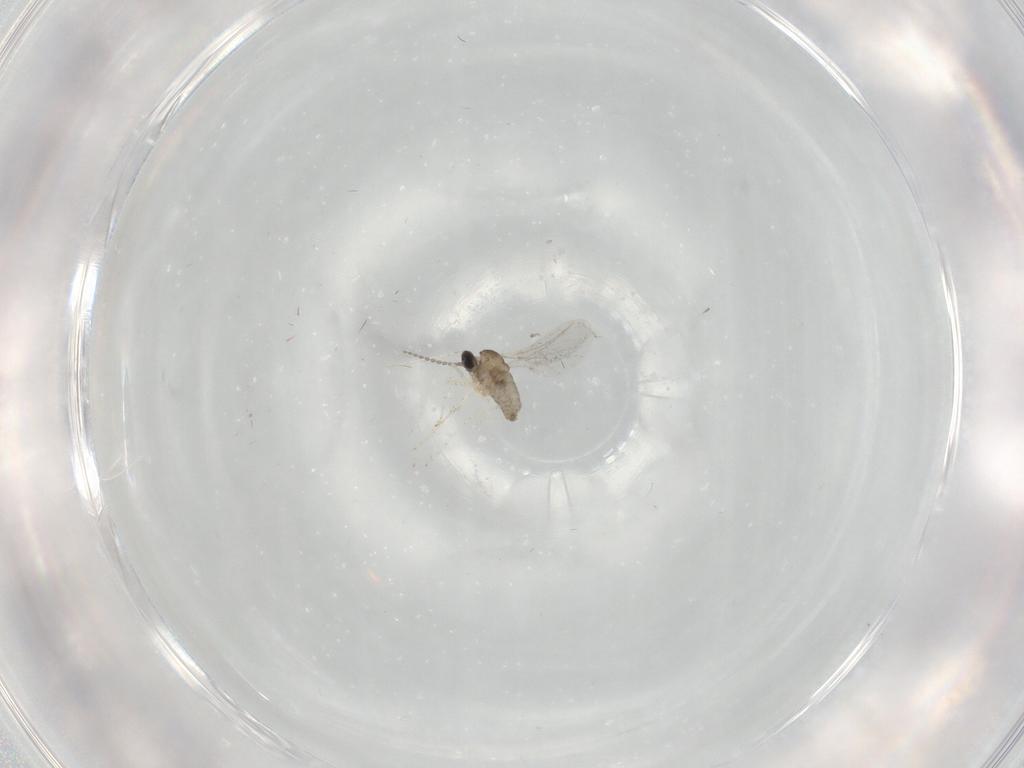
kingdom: Animalia
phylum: Arthropoda
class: Insecta
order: Diptera
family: Cecidomyiidae
